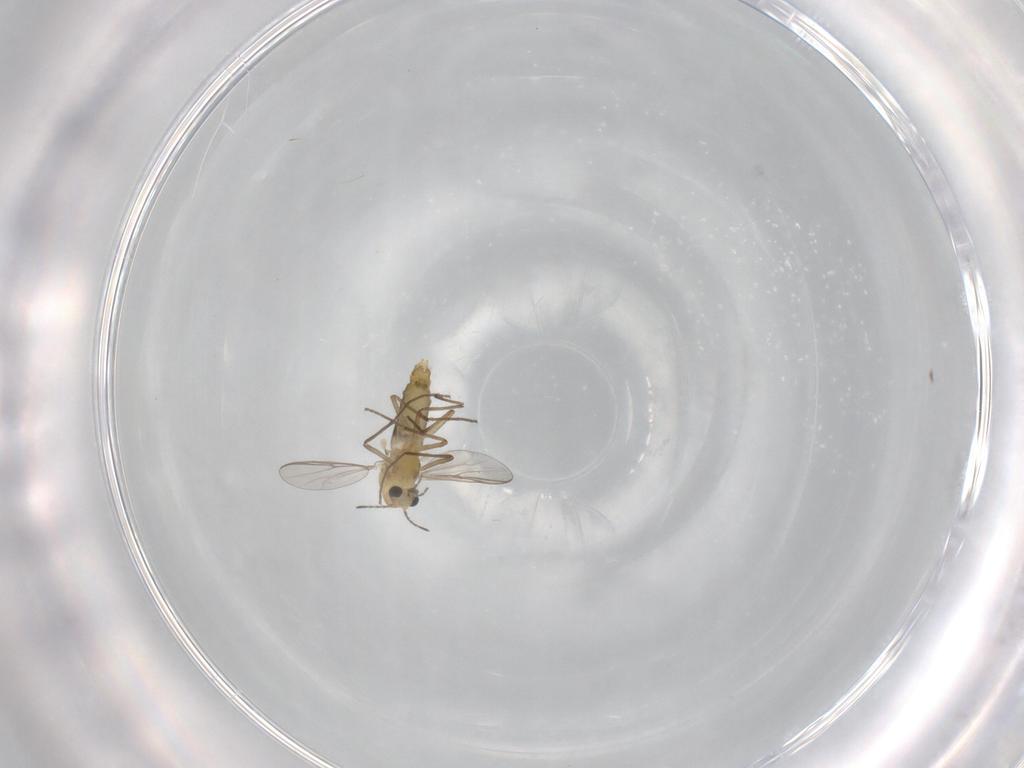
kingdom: Animalia
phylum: Arthropoda
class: Insecta
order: Diptera
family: Chironomidae
